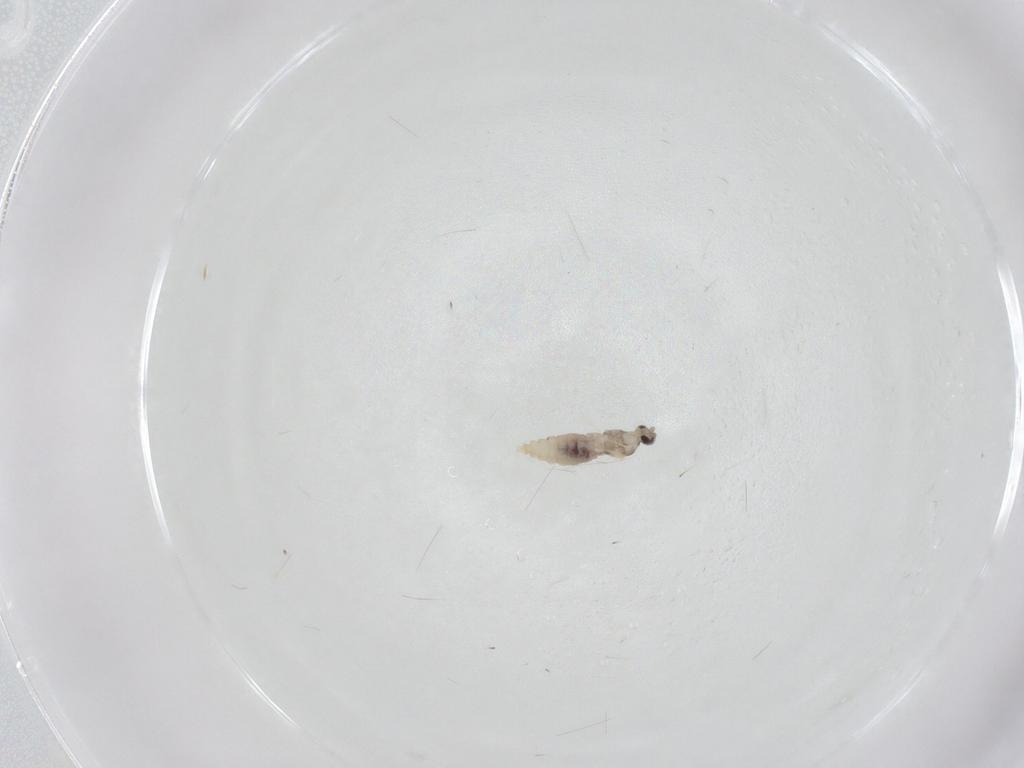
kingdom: Animalia
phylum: Arthropoda
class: Insecta
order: Diptera
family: Cecidomyiidae
